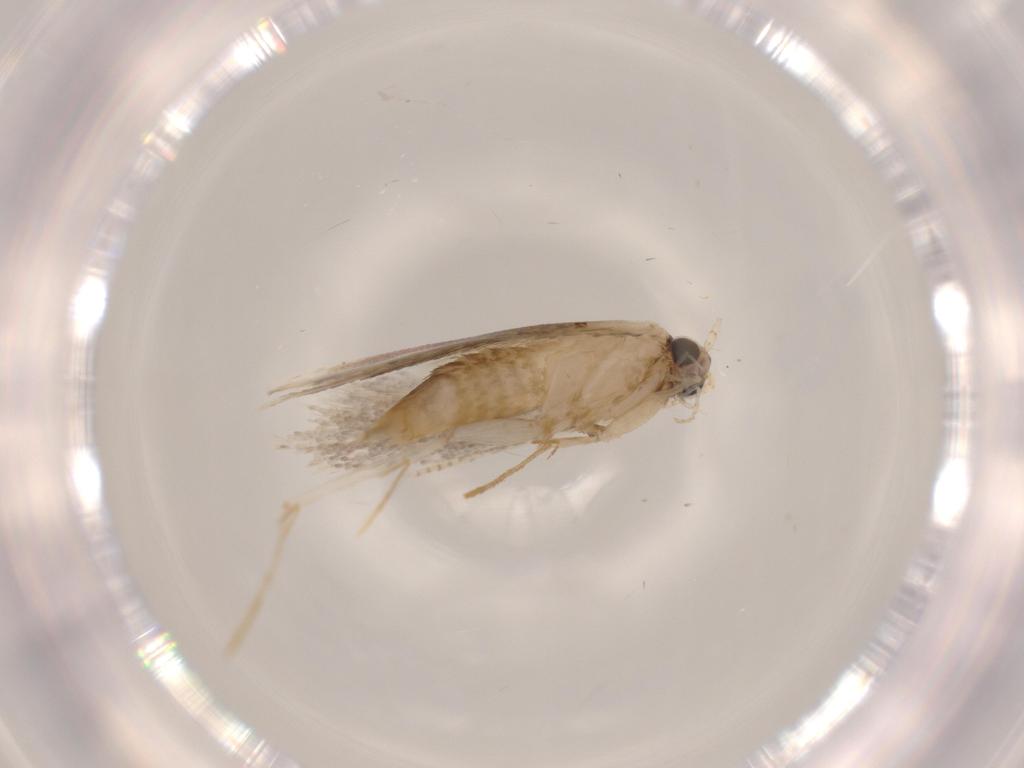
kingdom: Animalia
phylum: Arthropoda
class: Insecta
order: Lepidoptera
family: Tineidae
